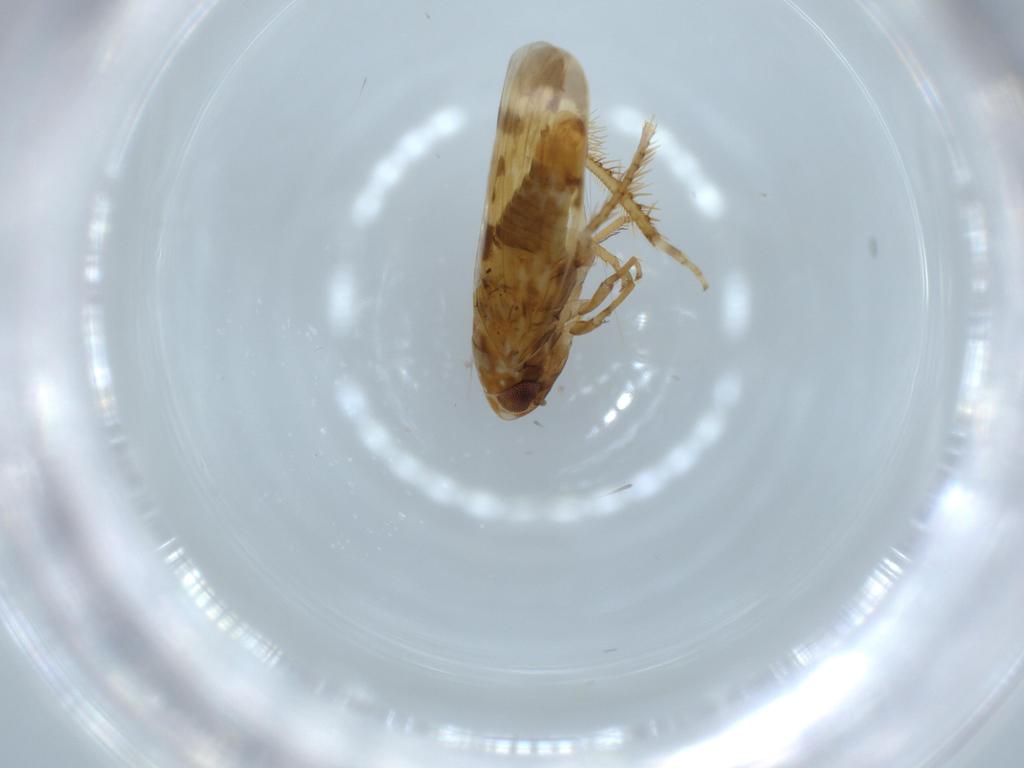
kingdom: Animalia
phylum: Arthropoda
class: Insecta
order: Hemiptera
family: Cicadellidae
